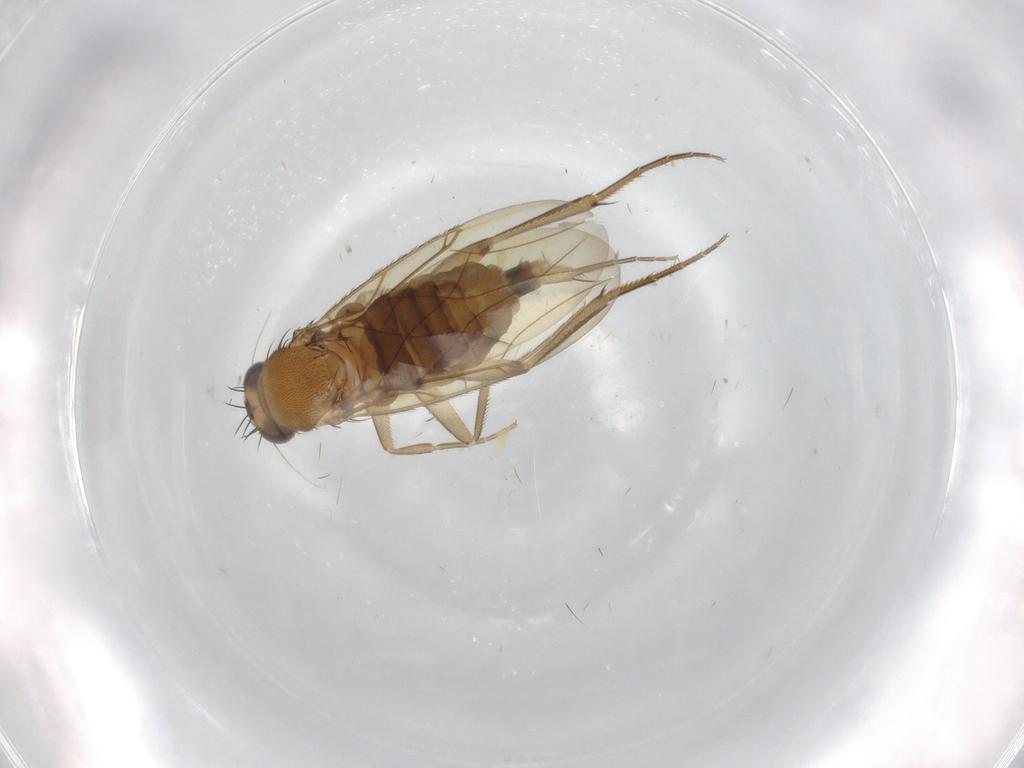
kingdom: Animalia
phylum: Arthropoda
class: Insecta
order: Diptera
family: Phoridae
